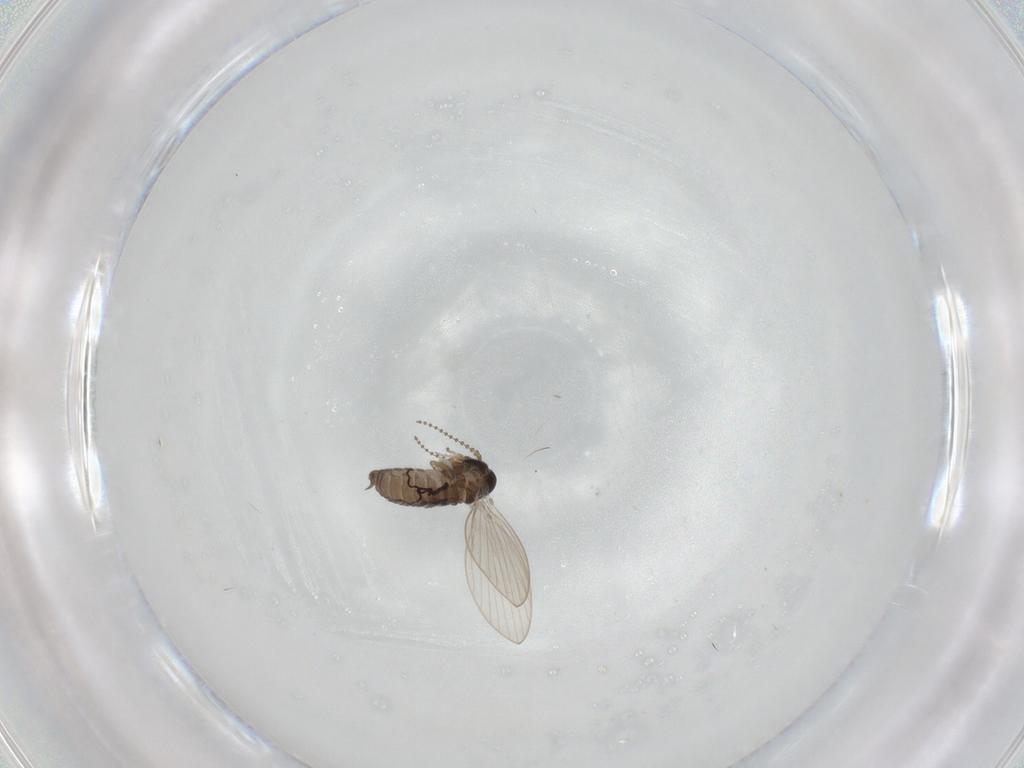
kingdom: Animalia
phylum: Arthropoda
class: Insecta
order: Diptera
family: Psychodidae
